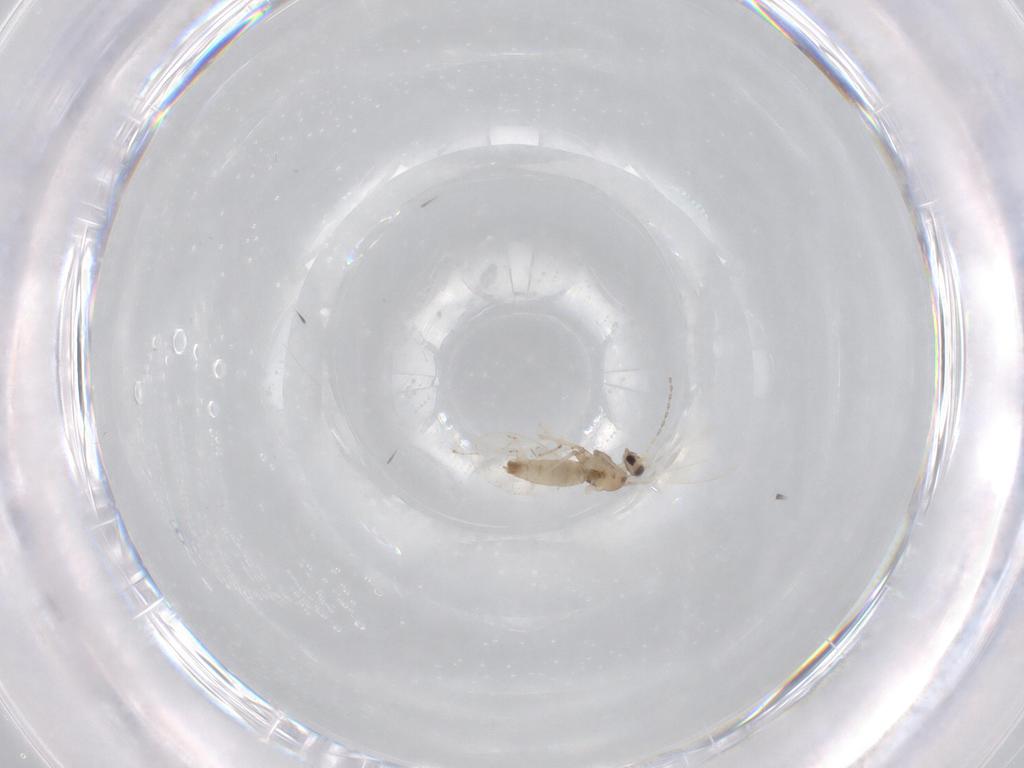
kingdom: Animalia
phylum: Arthropoda
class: Insecta
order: Diptera
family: Cecidomyiidae
